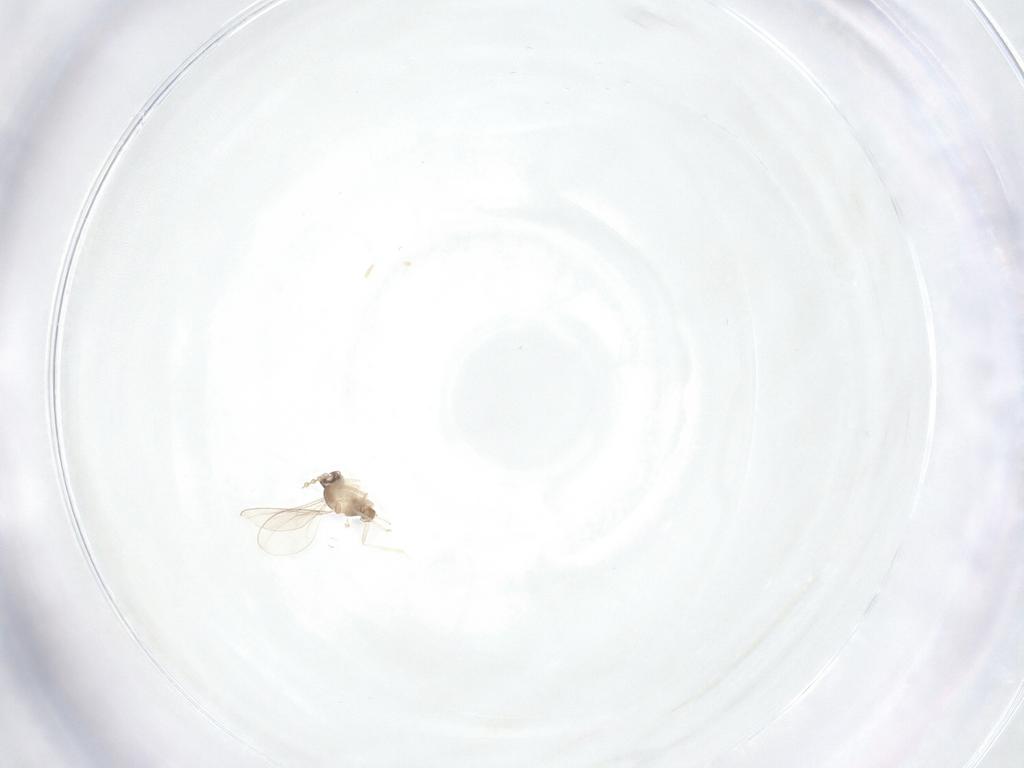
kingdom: Animalia
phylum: Arthropoda
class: Insecta
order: Diptera
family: Cecidomyiidae
